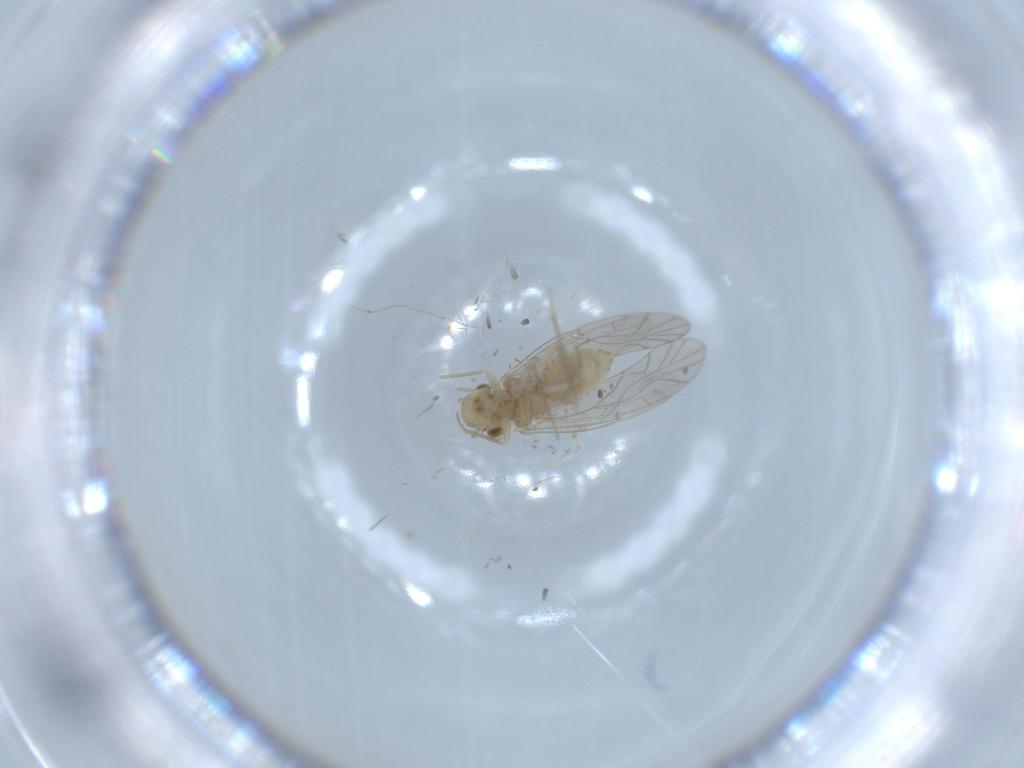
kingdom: Animalia
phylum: Arthropoda
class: Insecta
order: Psocodea
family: Lachesillidae
